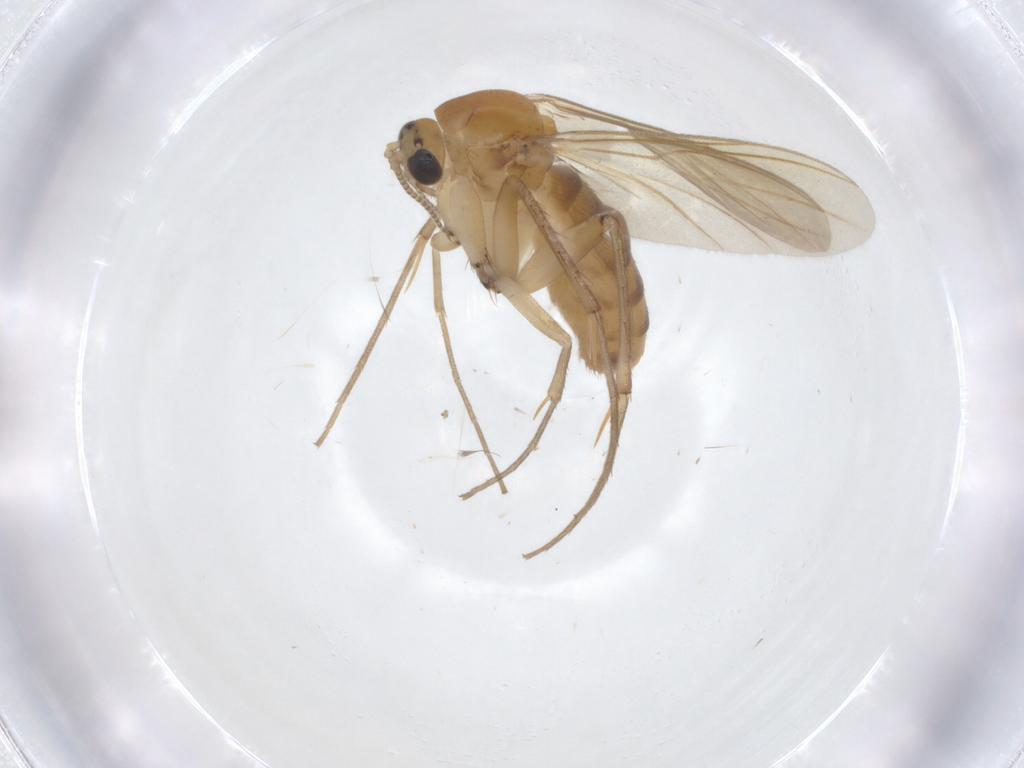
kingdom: Animalia
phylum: Arthropoda
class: Insecta
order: Diptera
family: Mycetophilidae
